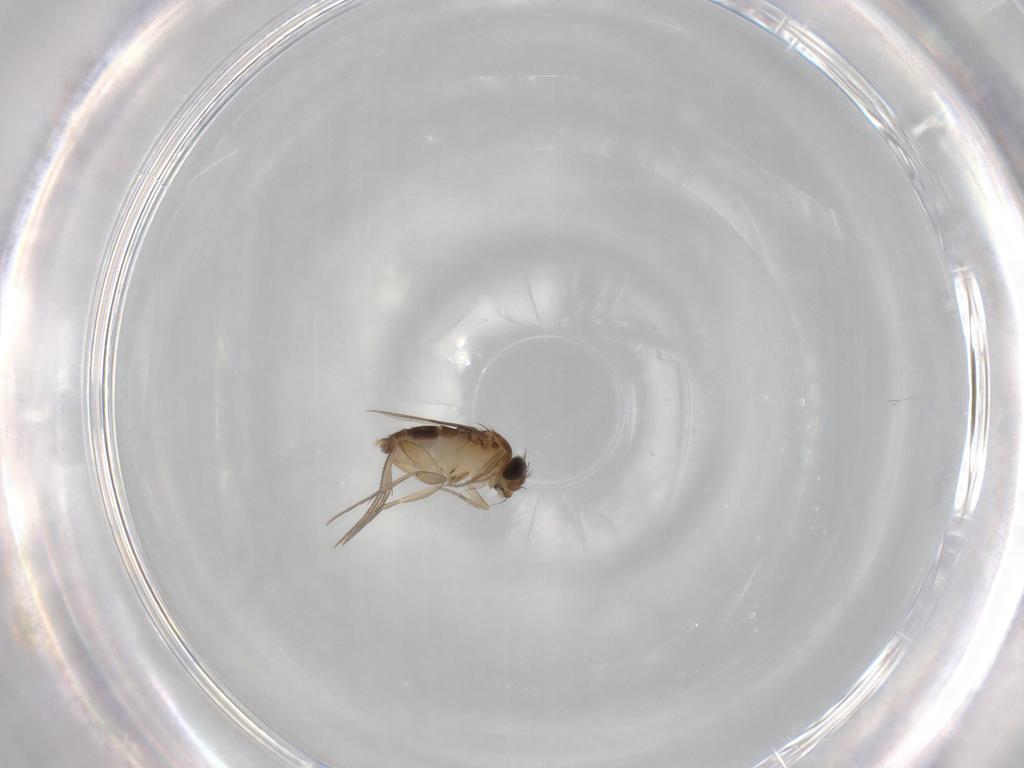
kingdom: Animalia
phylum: Arthropoda
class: Insecta
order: Diptera
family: Phoridae
